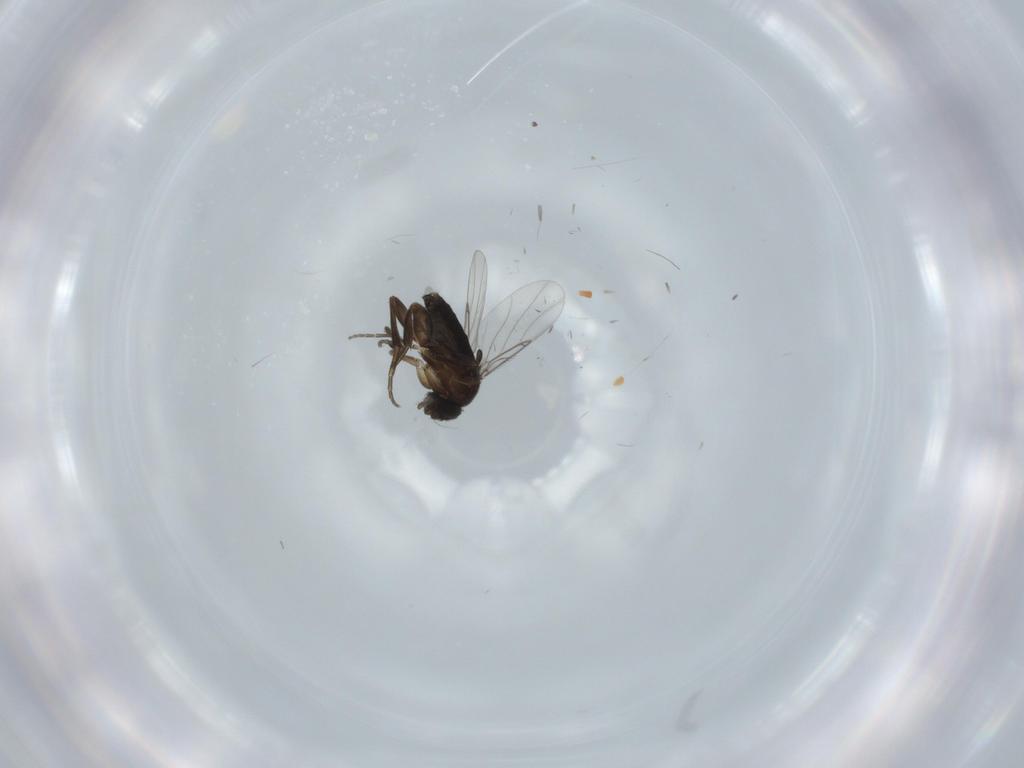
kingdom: Animalia
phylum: Arthropoda
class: Insecta
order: Diptera
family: Phoridae
